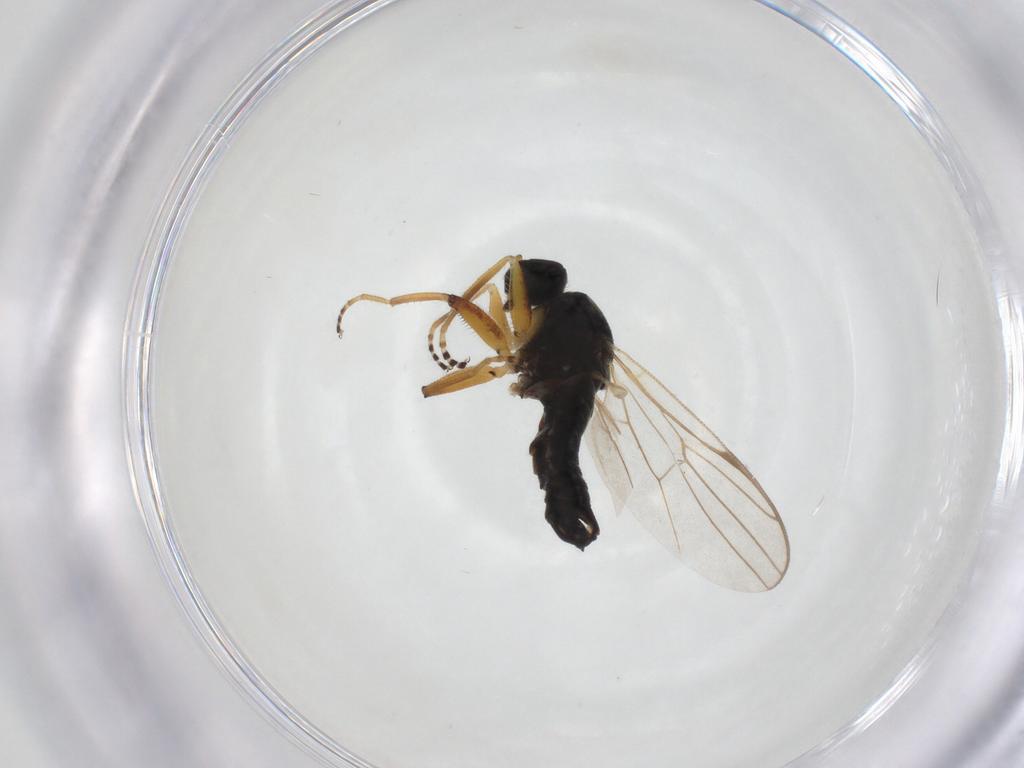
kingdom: Animalia
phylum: Arthropoda
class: Insecta
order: Diptera
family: Hybotidae
